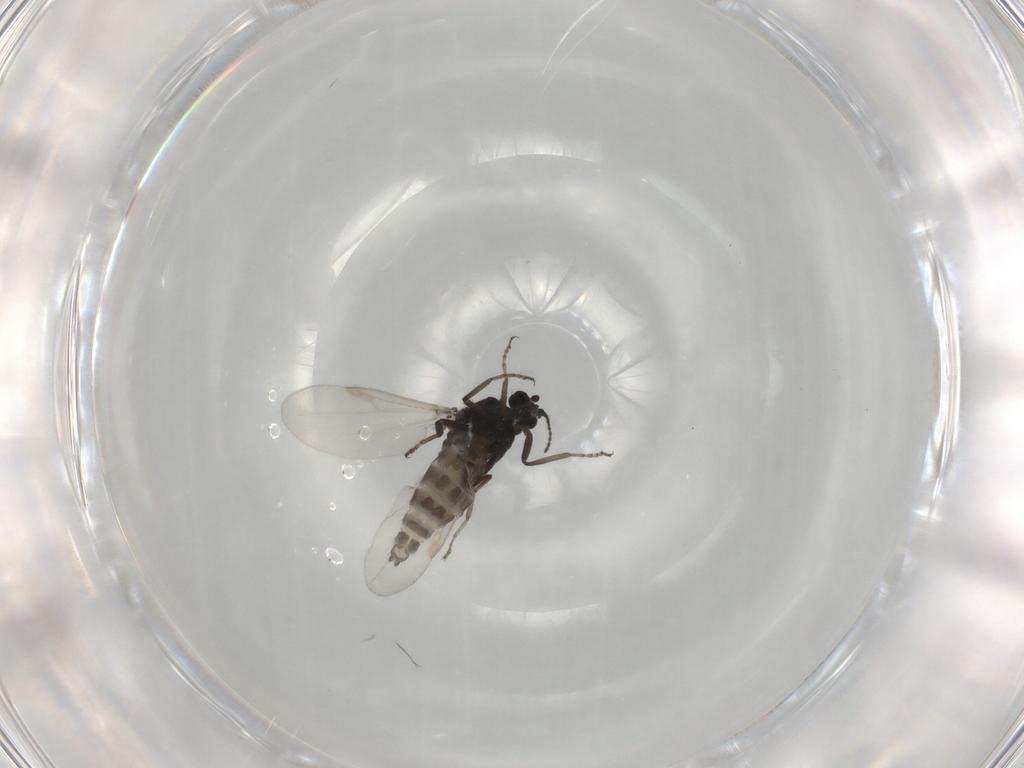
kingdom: Animalia
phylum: Arthropoda
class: Insecta
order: Diptera
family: Ceratopogonidae
